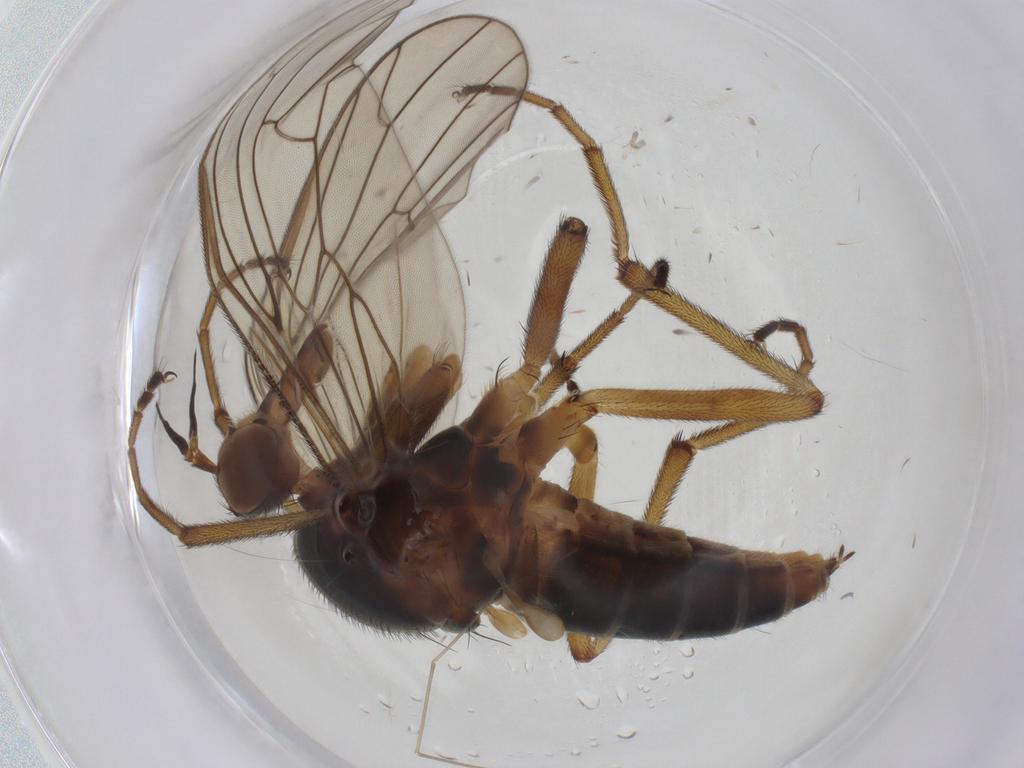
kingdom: Animalia
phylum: Arthropoda
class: Insecta
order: Diptera
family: Empididae
